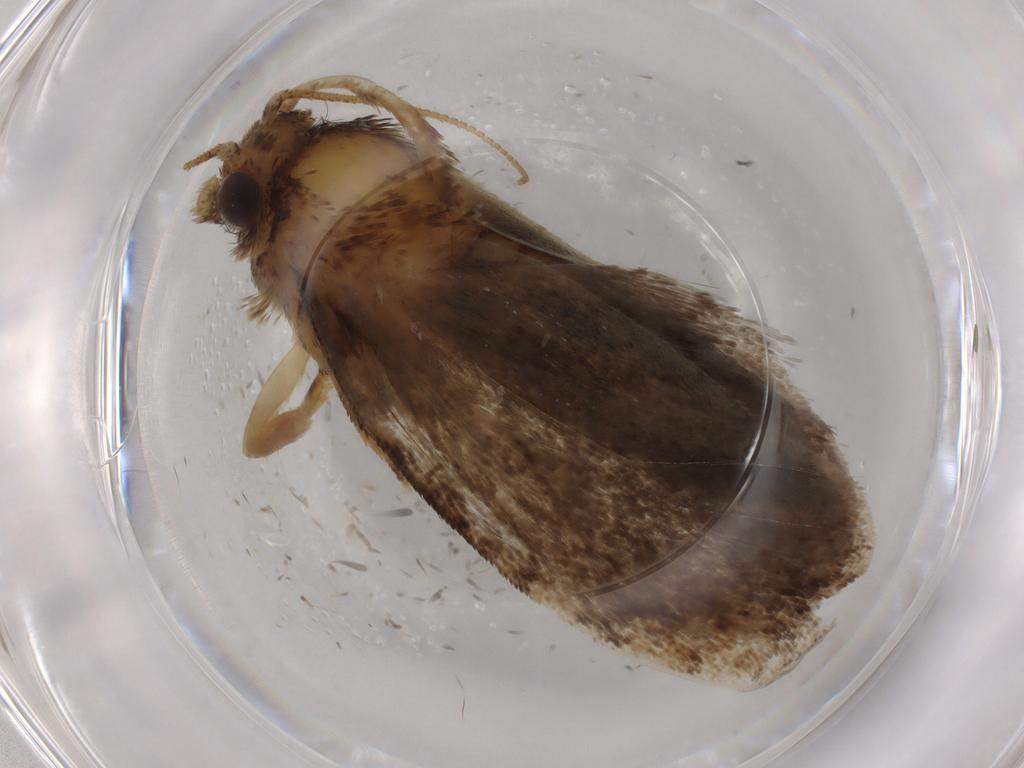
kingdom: Animalia
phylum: Arthropoda
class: Insecta
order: Lepidoptera
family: Tineidae
